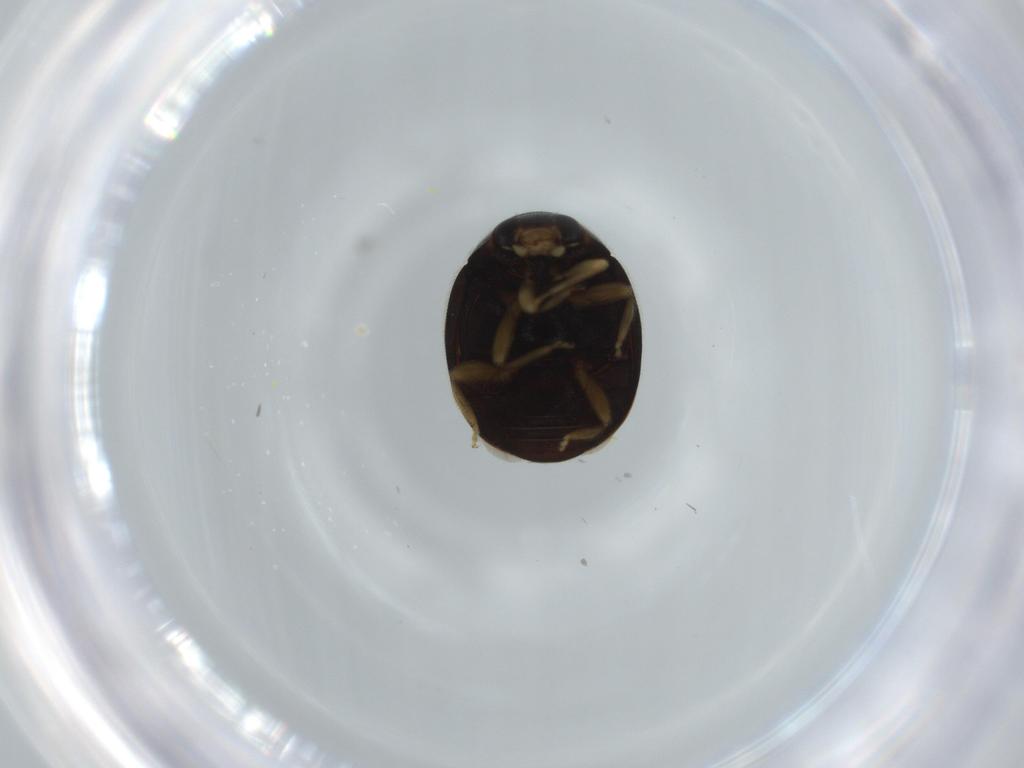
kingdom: Animalia
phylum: Arthropoda
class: Insecta
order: Coleoptera
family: Coccinellidae
